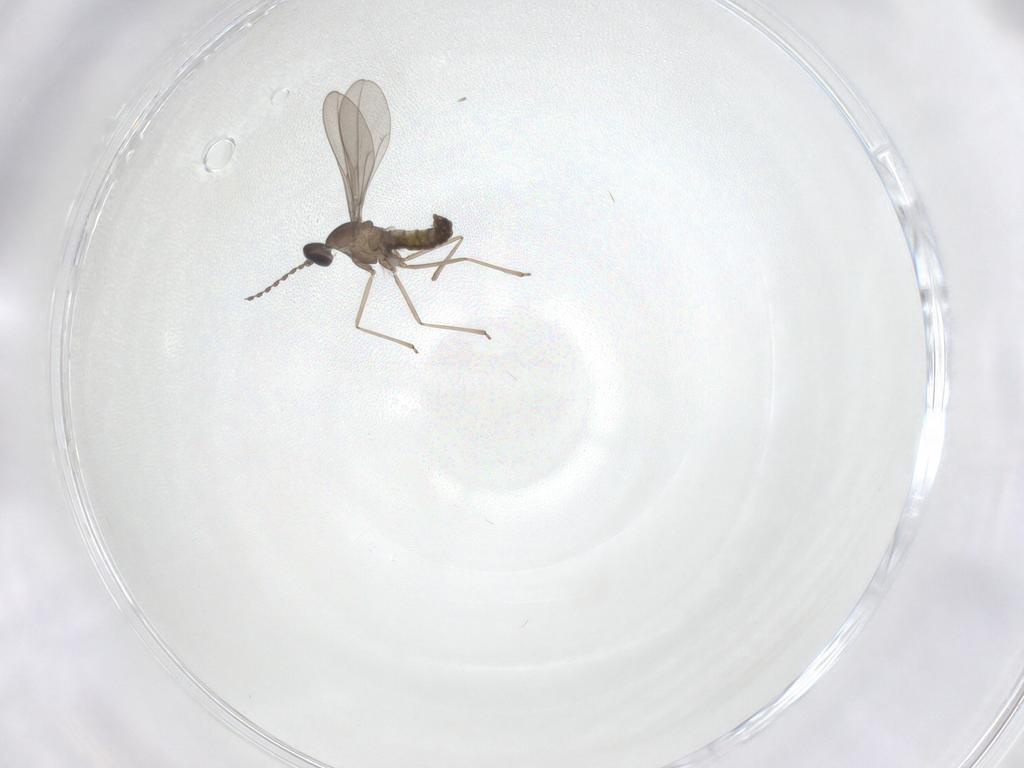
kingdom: Animalia
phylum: Arthropoda
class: Insecta
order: Diptera
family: Cecidomyiidae
